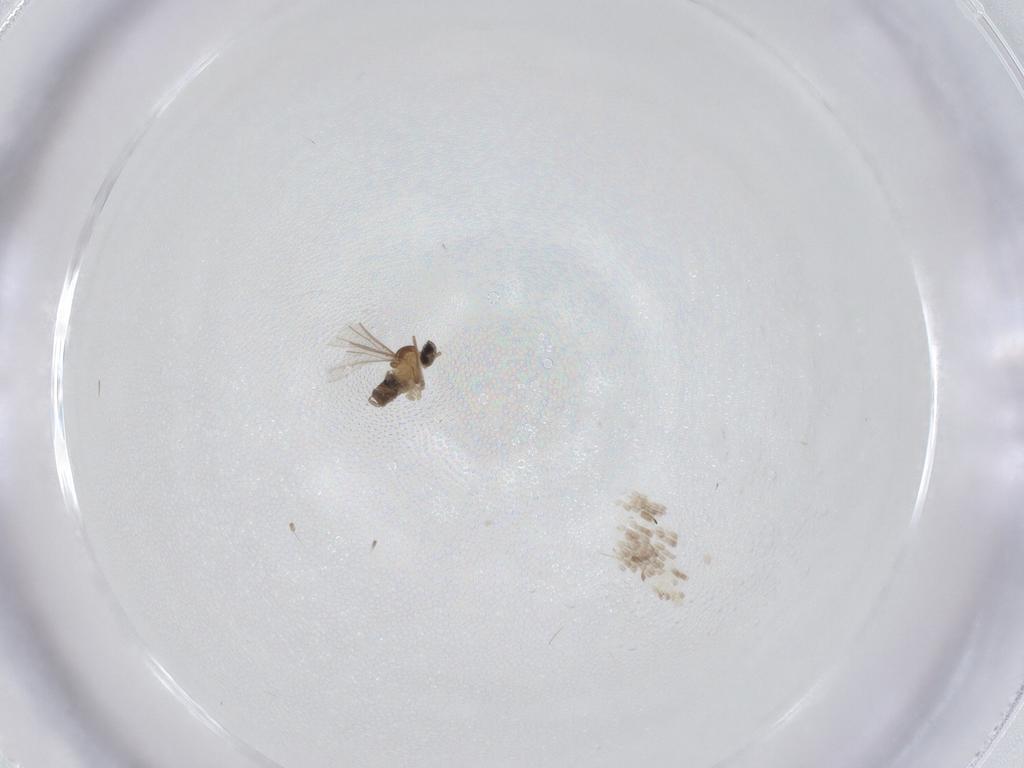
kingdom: Animalia
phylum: Arthropoda
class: Insecta
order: Diptera
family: Cecidomyiidae
